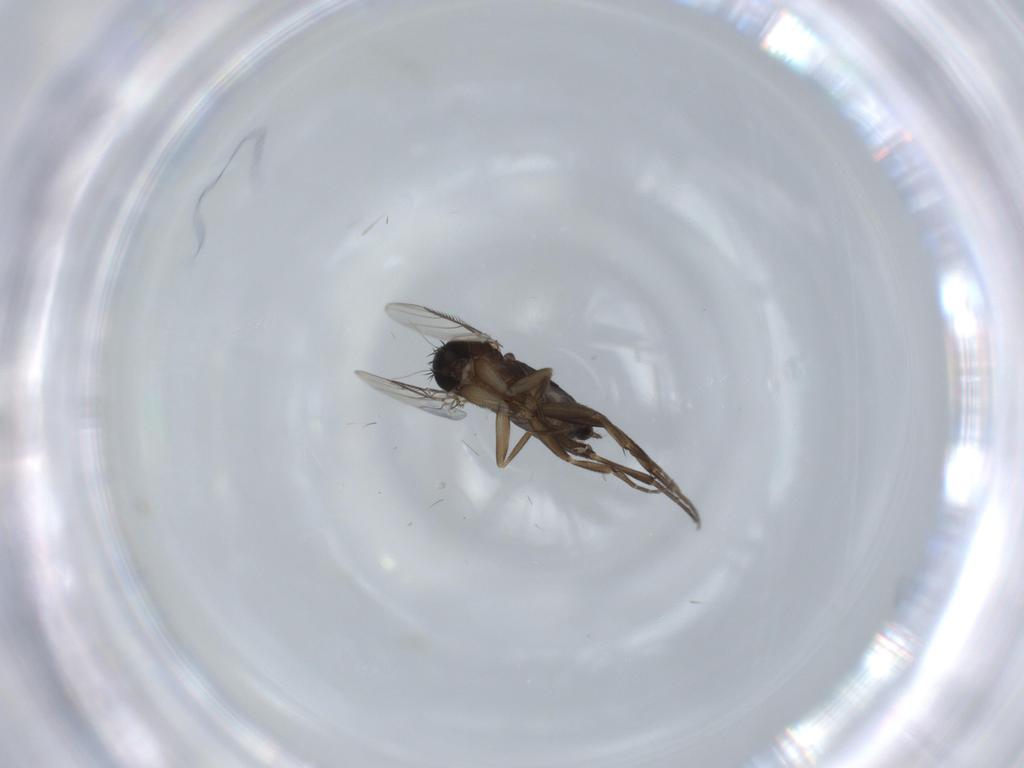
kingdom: Animalia
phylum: Arthropoda
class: Insecta
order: Diptera
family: Phoridae
